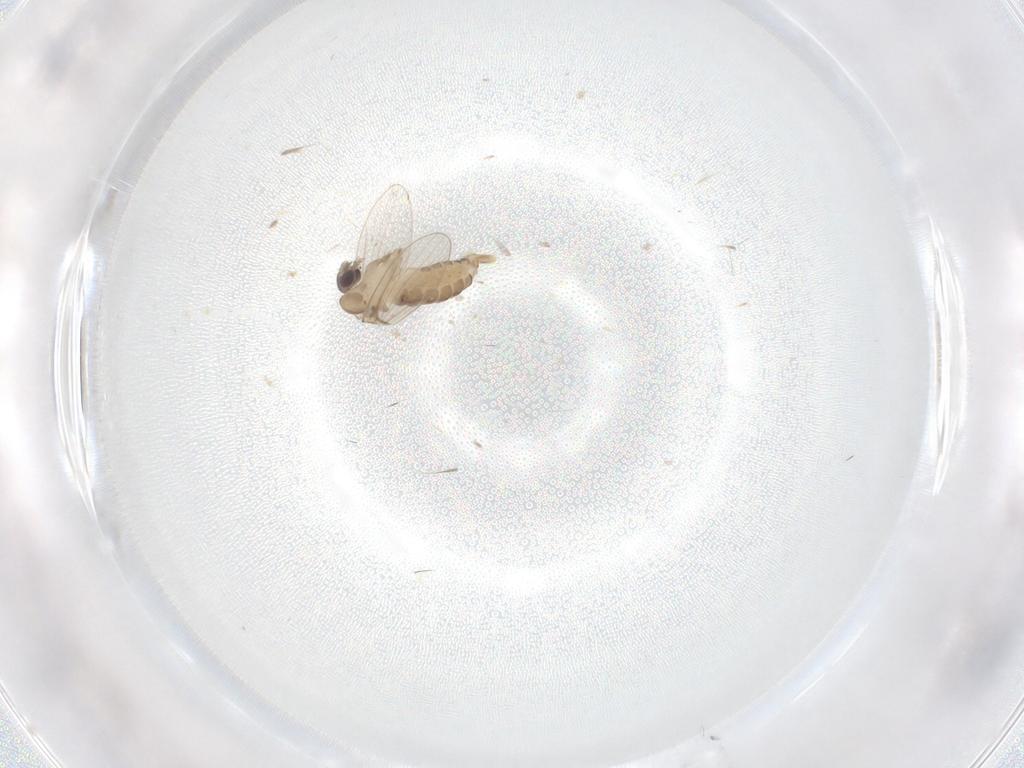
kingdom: Animalia
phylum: Arthropoda
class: Insecta
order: Diptera
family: Psychodidae
